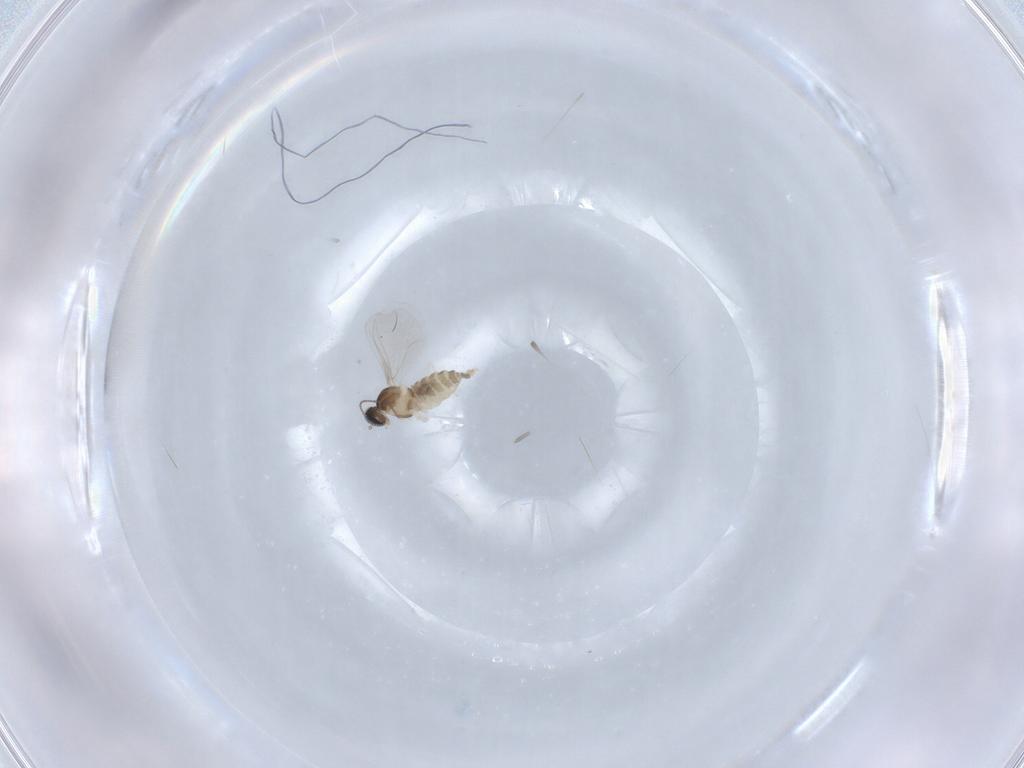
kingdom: Animalia
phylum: Arthropoda
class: Insecta
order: Diptera
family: Cecidomyiidae
